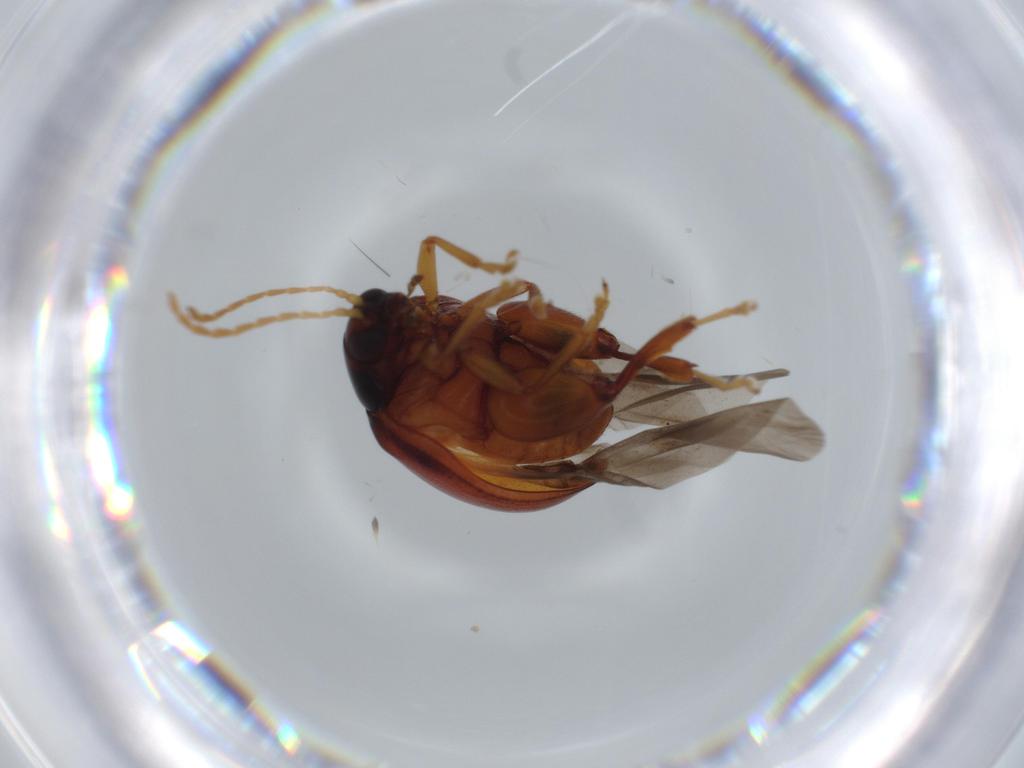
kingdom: Animalia
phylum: Arthropoda
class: Insecta
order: Coleoptera
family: Chrysomelidae
